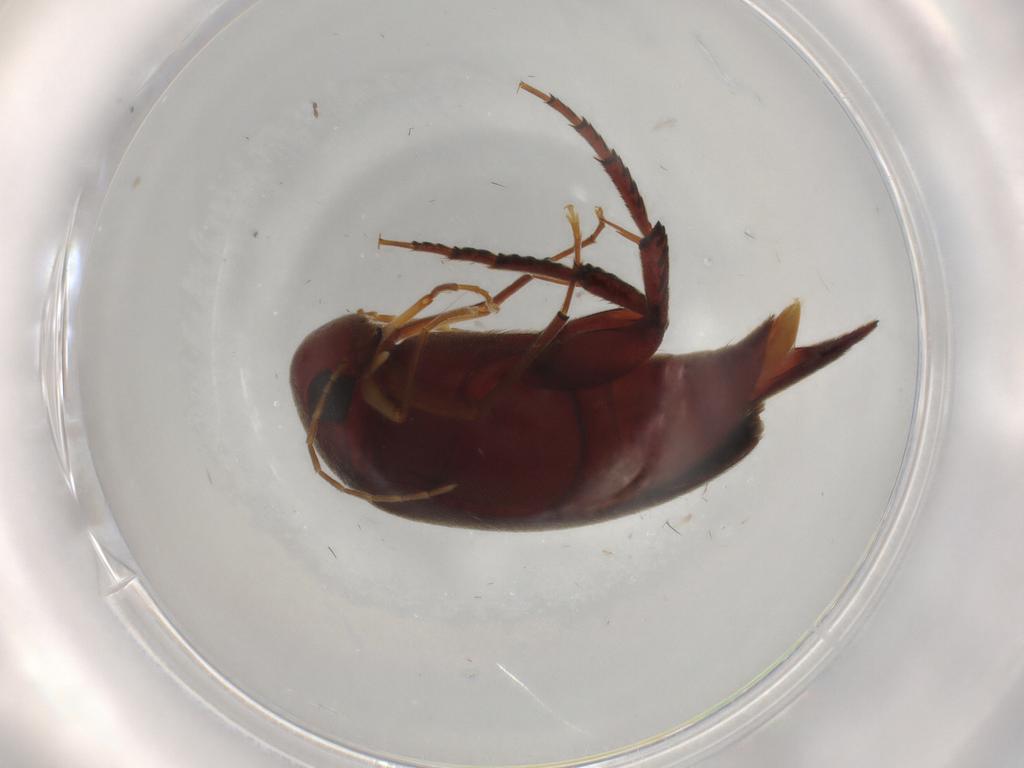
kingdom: Animalia
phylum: Arthropoda
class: Insecta
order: Coleoptera
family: Mordellidae
